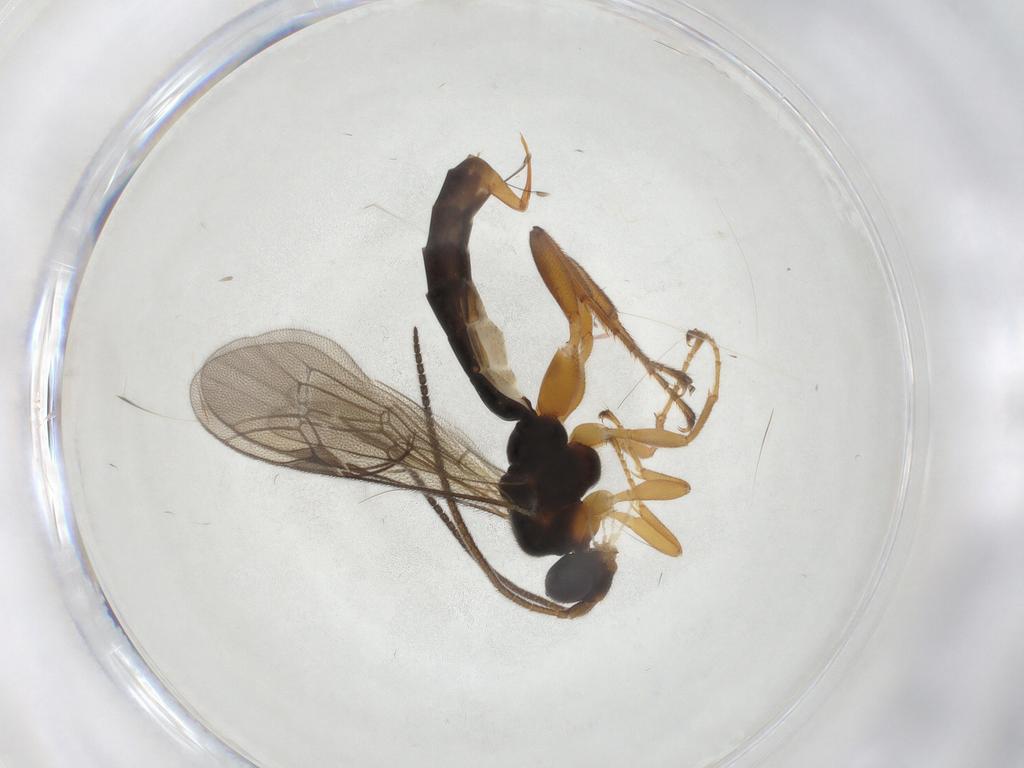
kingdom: Animalia
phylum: Arthropoda
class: Insecta
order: Hymenoptera
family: Ichneumonidae
